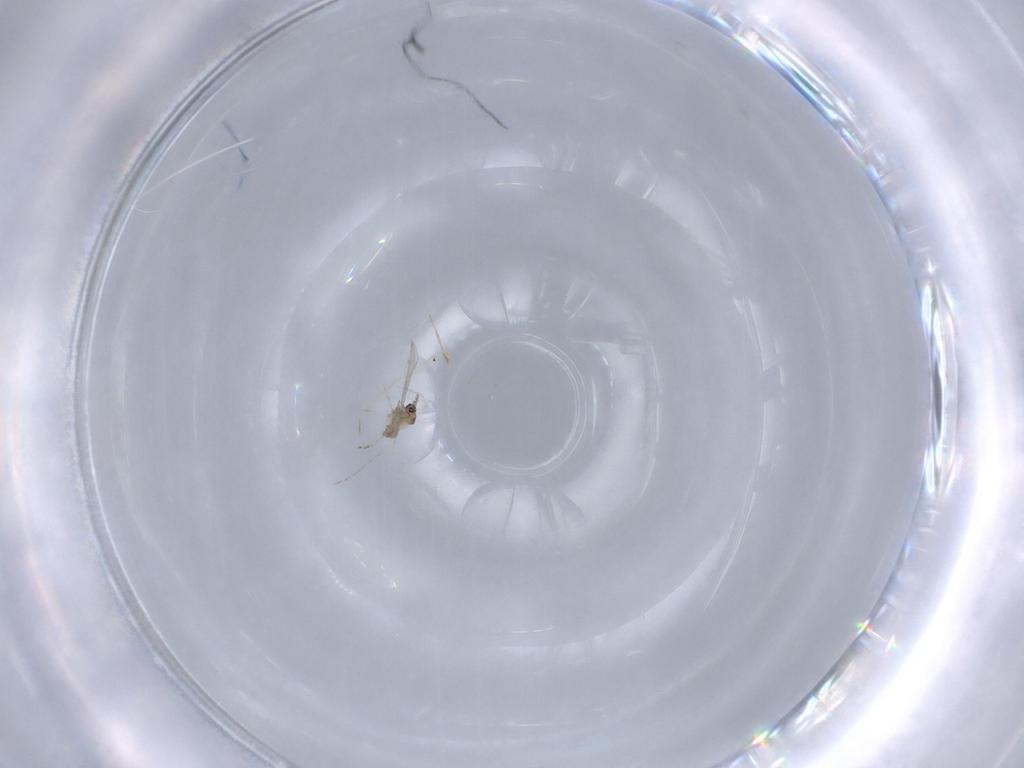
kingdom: Animalia
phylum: Arthropoda
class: Insecta
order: Diptera
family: Cecidomyiidae
